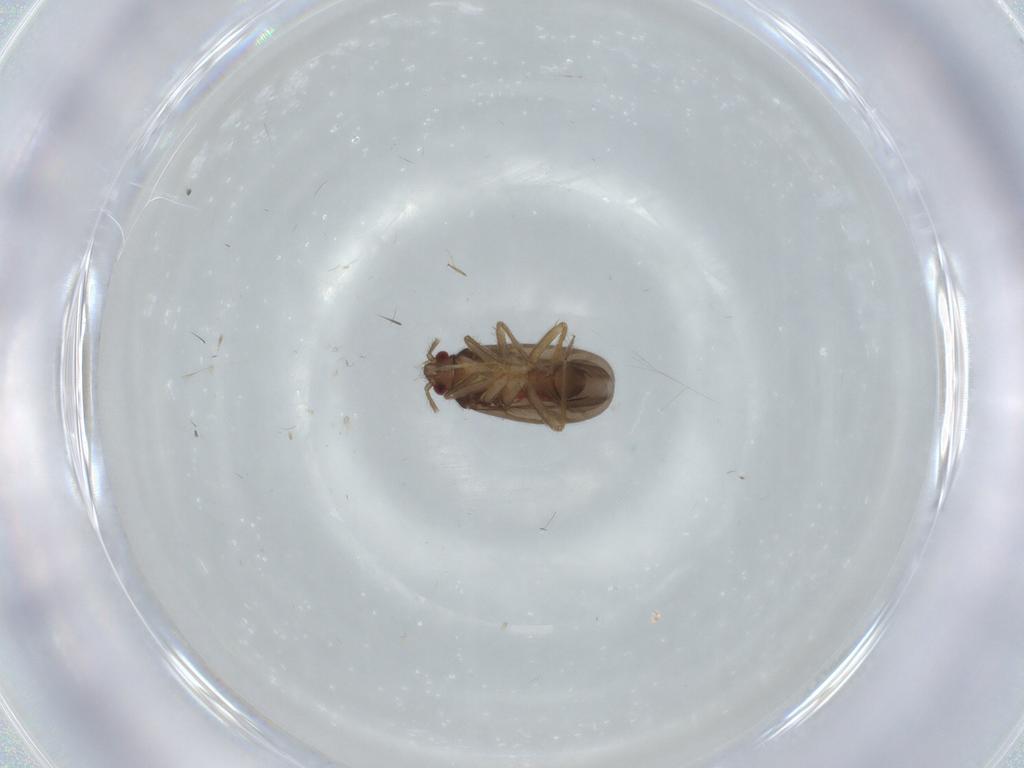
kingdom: Animalia
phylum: Arthropoda
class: Insecta
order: Hemiptera
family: Ceratocombidae
